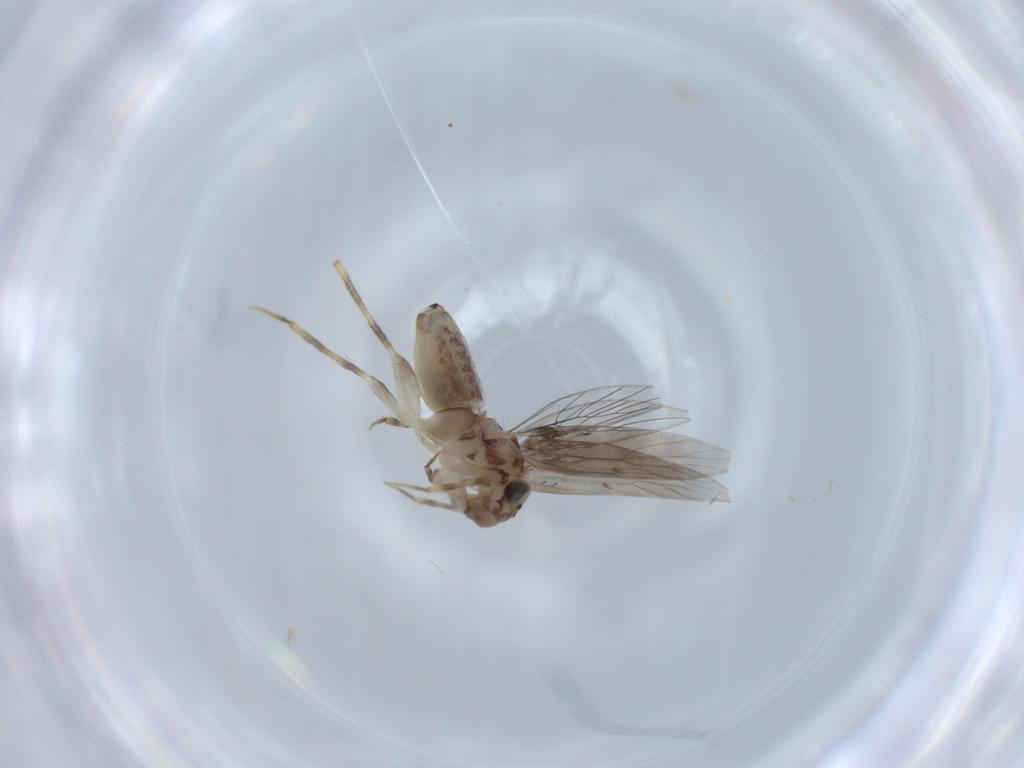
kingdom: Animalia
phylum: Arthropoda
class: Insecta
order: Psocodea
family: Lepidopsocidae
